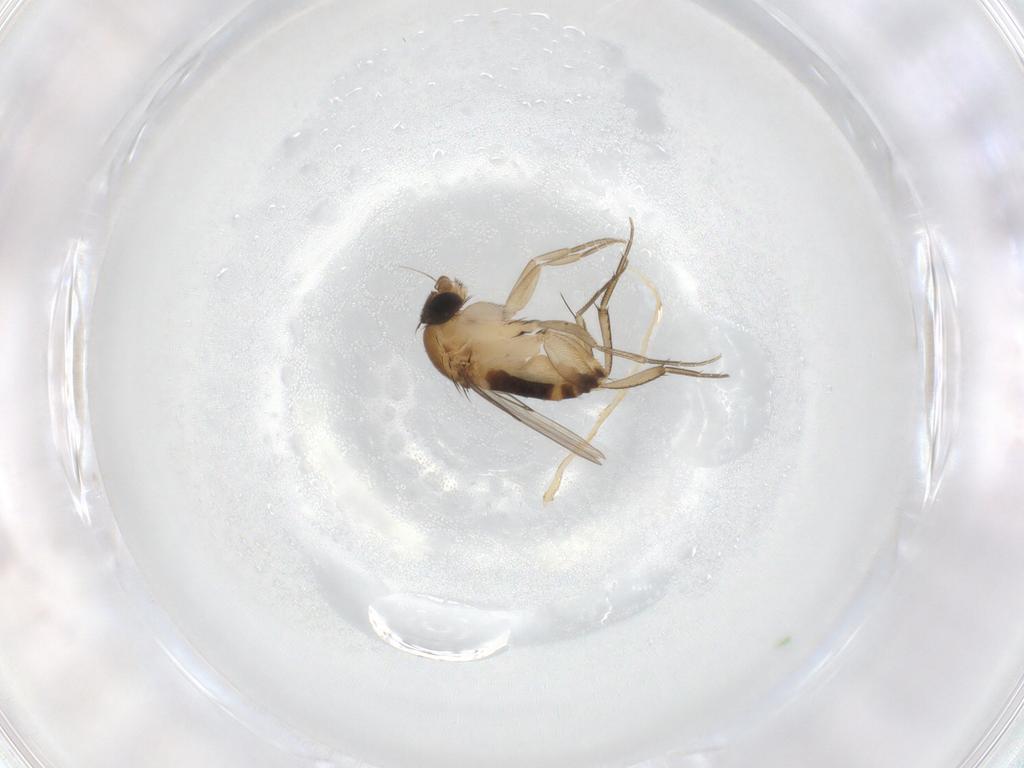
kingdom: Animalia
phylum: Arthropoda
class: Insecta
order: Diptera
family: Phoridae
